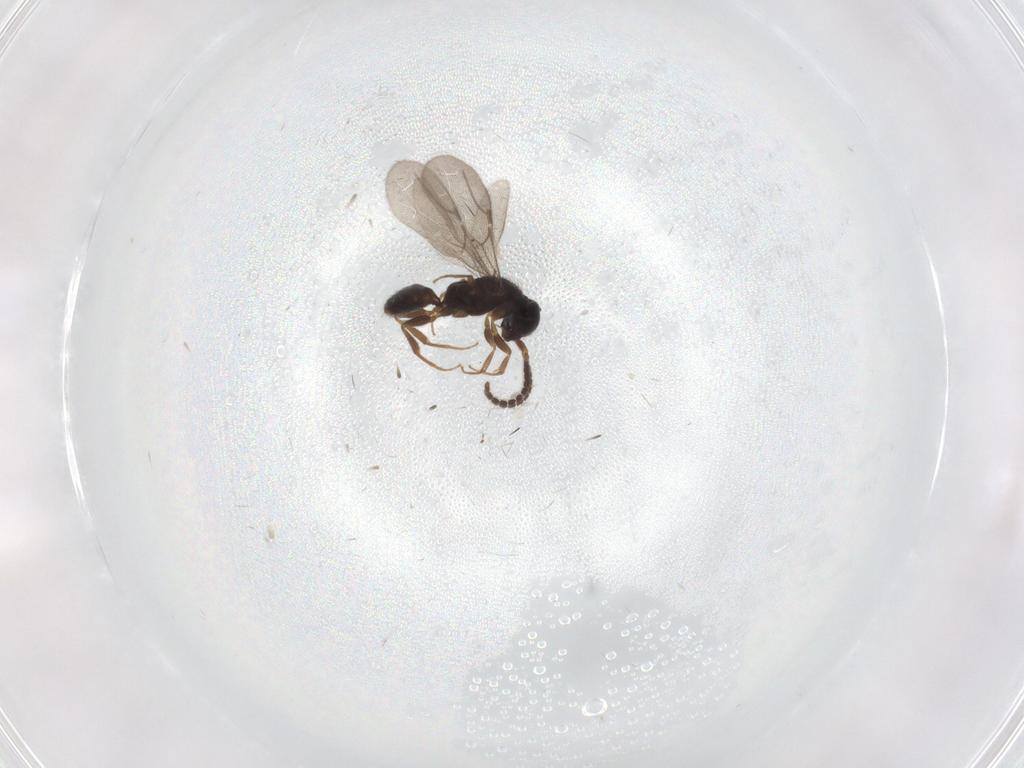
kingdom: Animalia
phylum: Arthropoda
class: Insecta
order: Hymenoptera
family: Bethylidae
